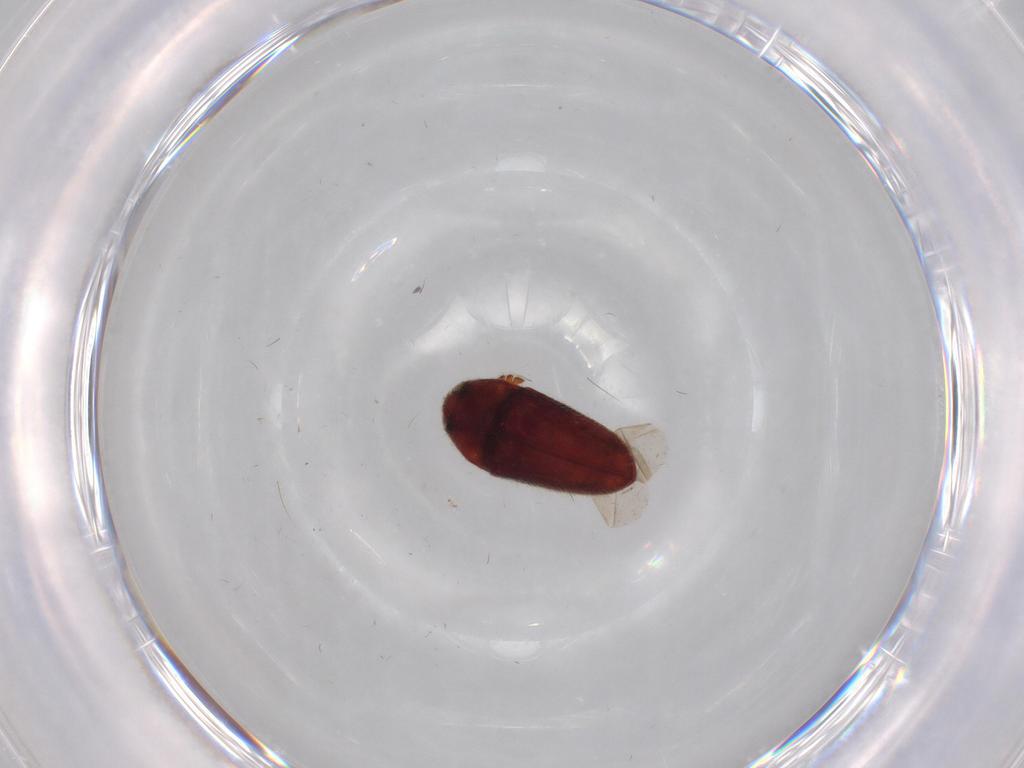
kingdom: Animalia
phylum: Arthropoda
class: Insecta
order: Coleoptera
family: Throscidae
